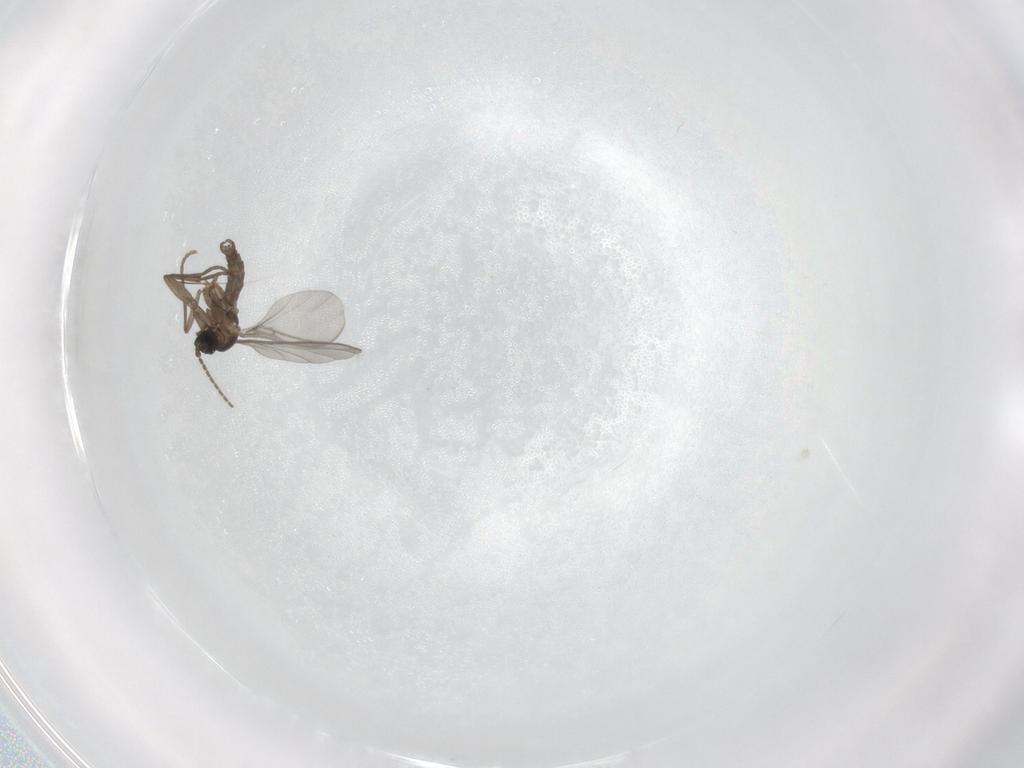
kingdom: Animalia
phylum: Arthropoda
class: Insecta
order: Diptera
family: Sciaridae
